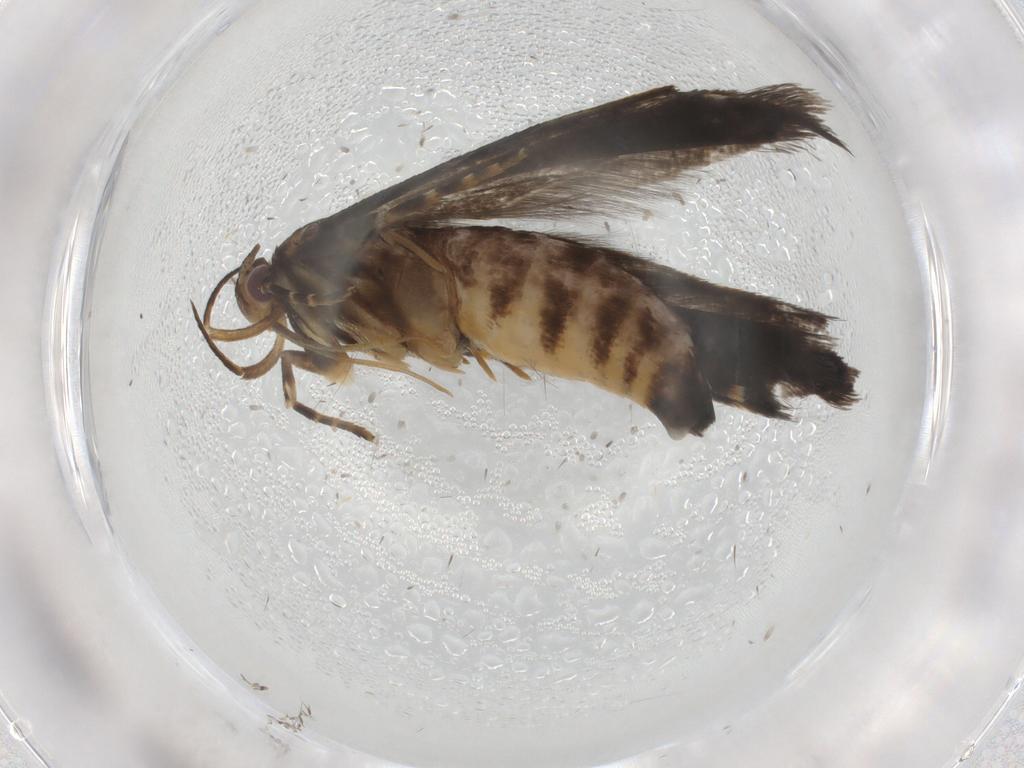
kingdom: Animalia
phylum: Arthropoda
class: Insecta
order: Lepidoptera
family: Gelechiidae
